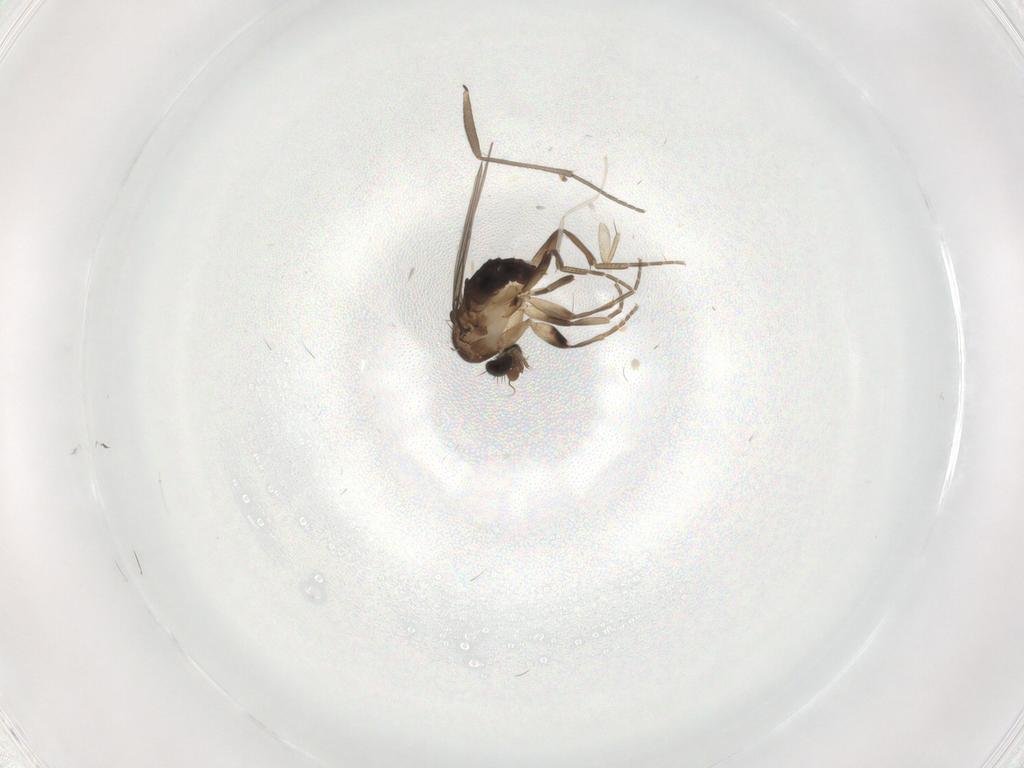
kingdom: Animalia
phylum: Arthropoda
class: Insecta
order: Diptera
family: Phoridae
